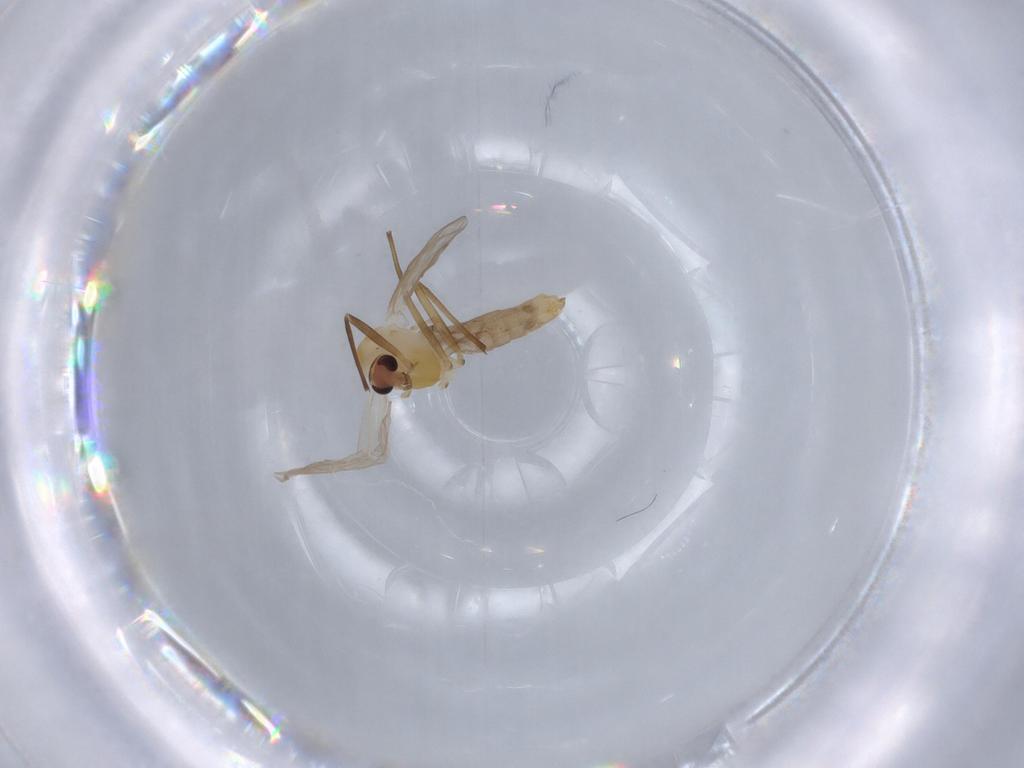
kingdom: Animalia
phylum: Arthropoda
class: Insecta
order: Diptera
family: Chironomidae
